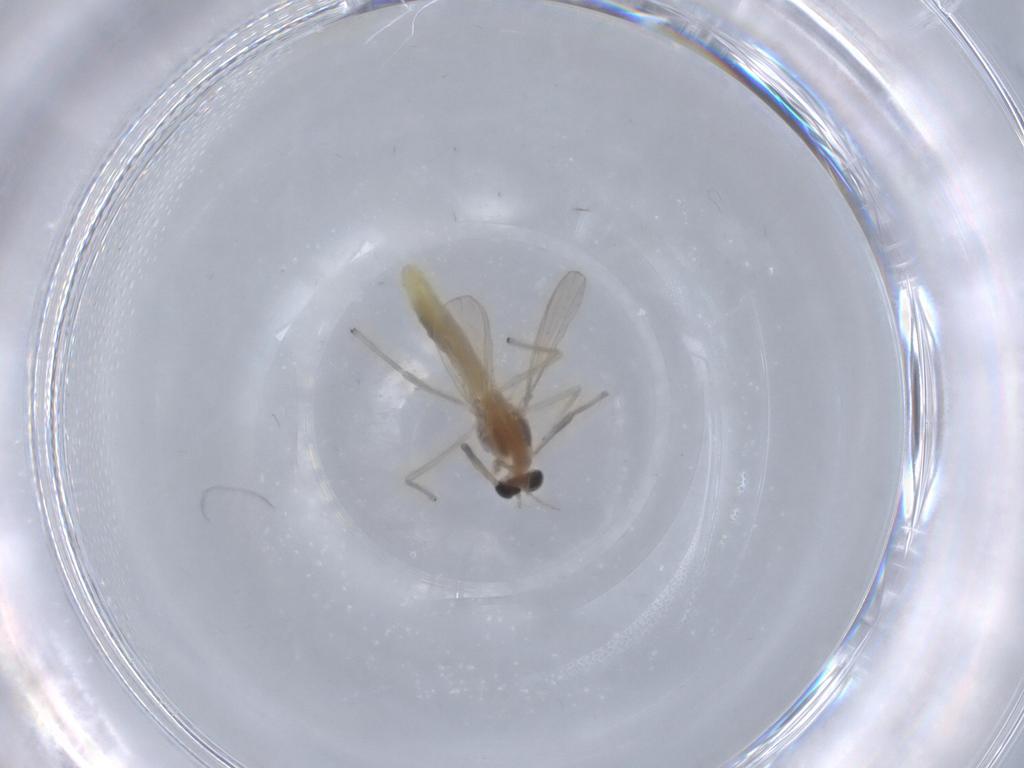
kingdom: Animalia
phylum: Arthropoda
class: Insecta
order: Diptera
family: Chironomidae
